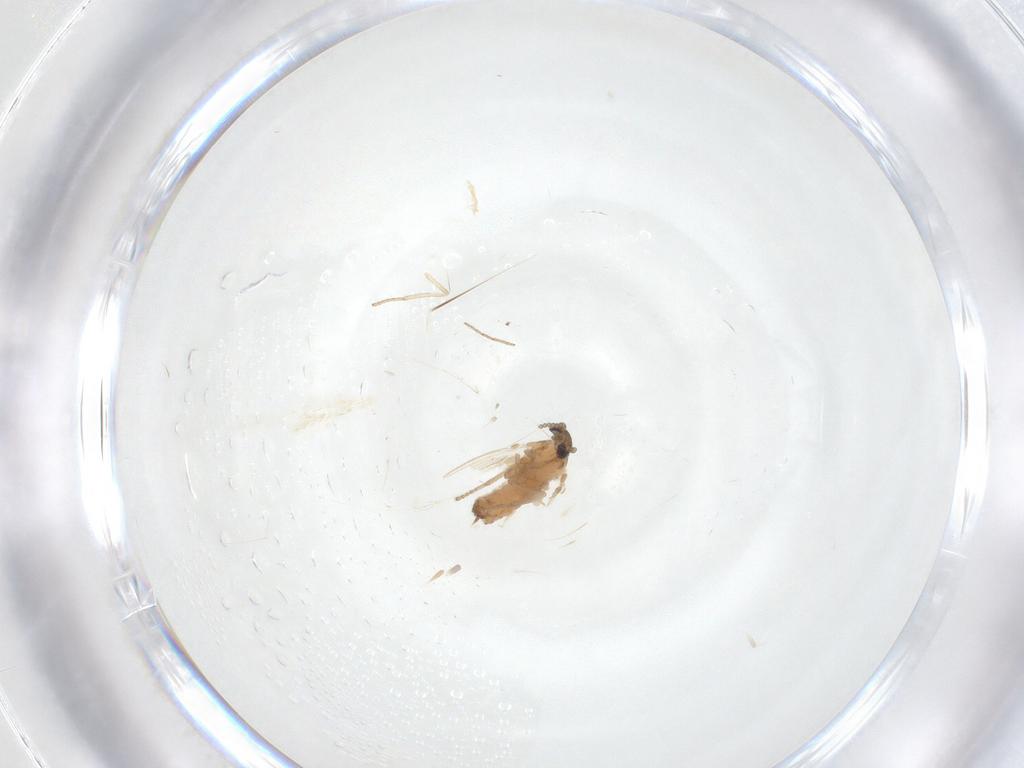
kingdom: Animalia
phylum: Arthropoda
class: Insecta
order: Diptera
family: Psychodidae
